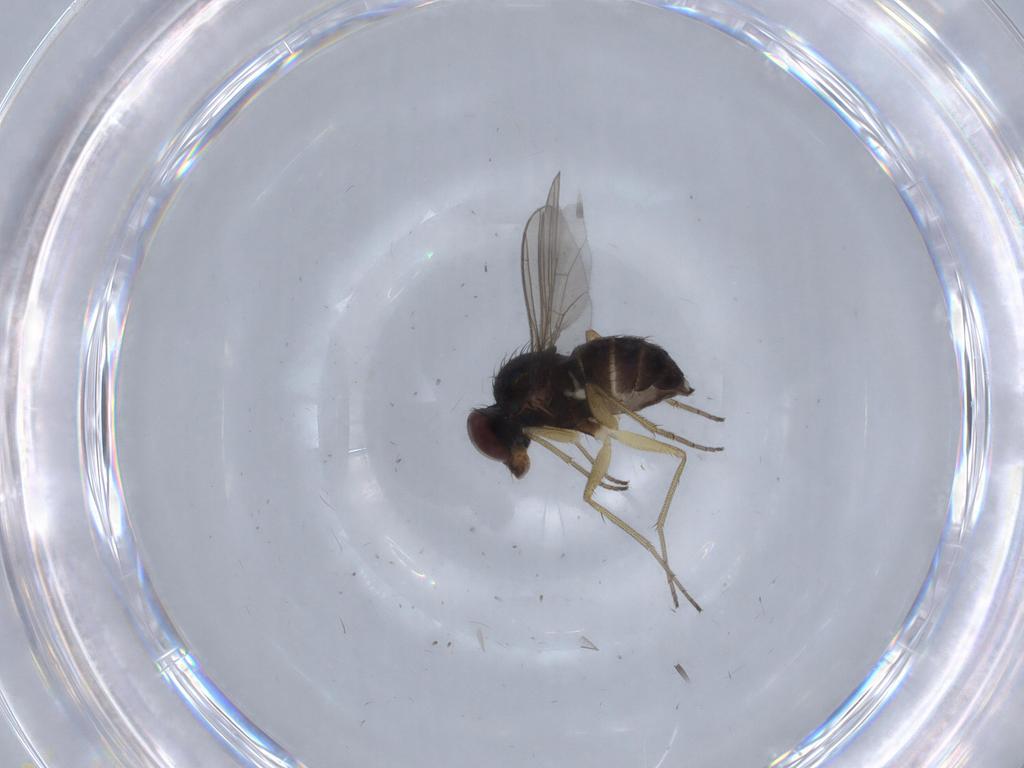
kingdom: Animalia
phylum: Arthropoda
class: Insecta
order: Diptera
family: Dolichopodidae
